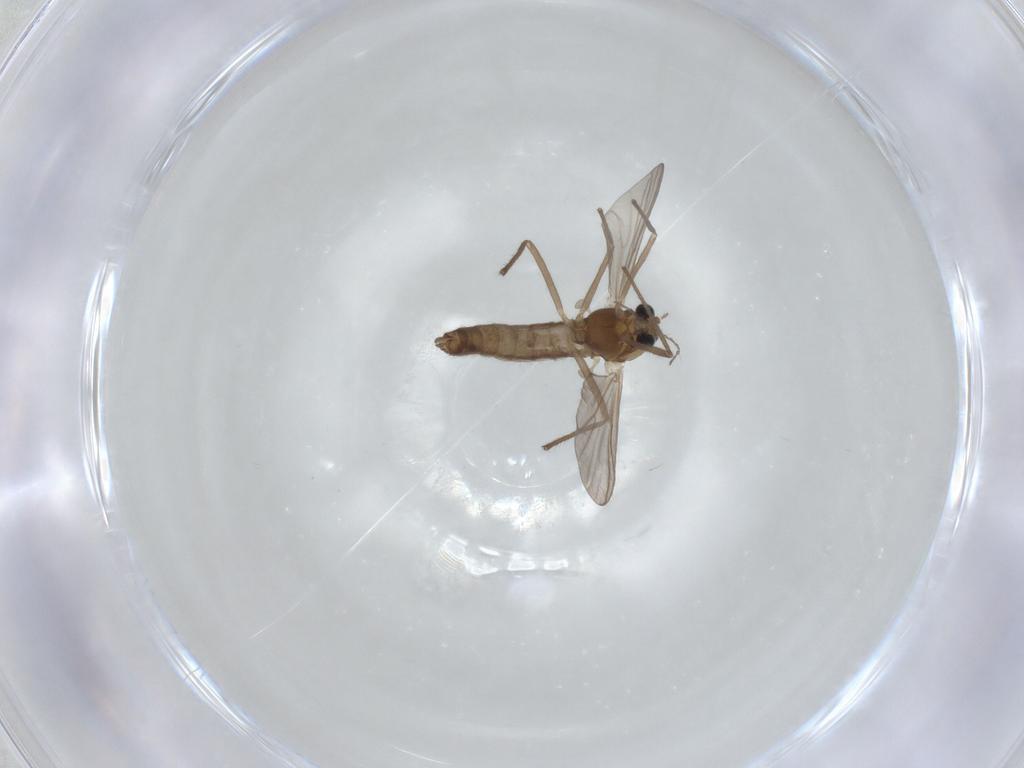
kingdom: Animalia
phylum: Arthropoda
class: Insecta
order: Diptera
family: Chironomidae
